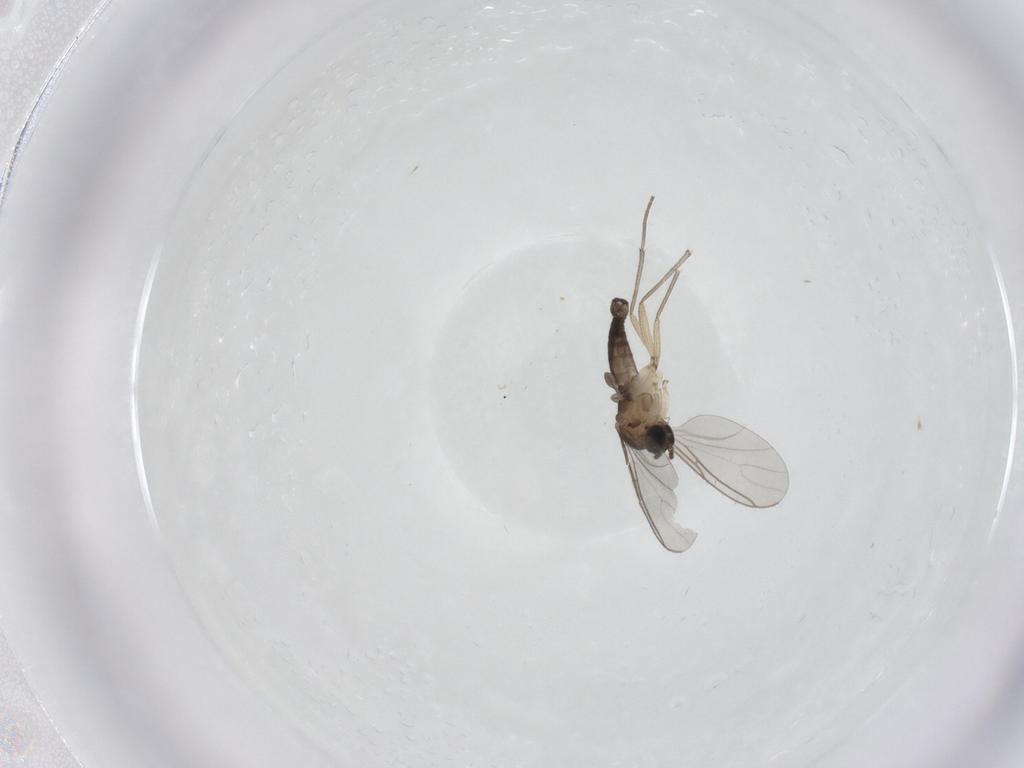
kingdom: Animalia
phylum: Arthropoda
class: Insecta
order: Diptera
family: Sciaridae
